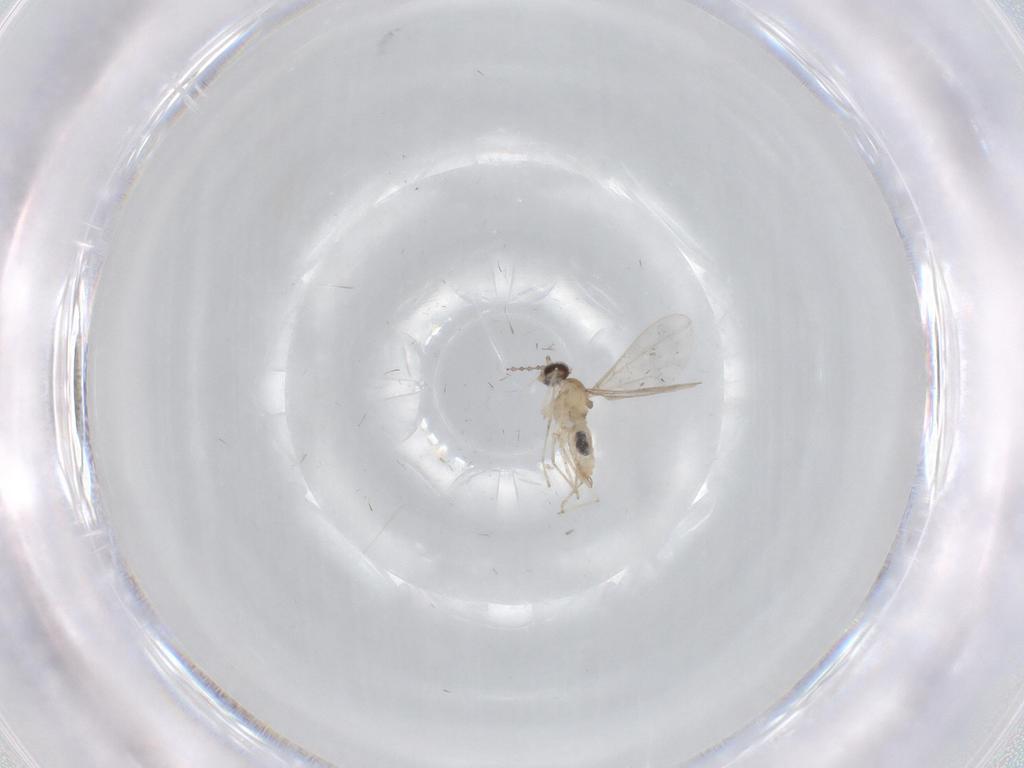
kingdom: Animalia
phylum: Arthropoda
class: Insecta
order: Diptera
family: Cecidomyiidae
